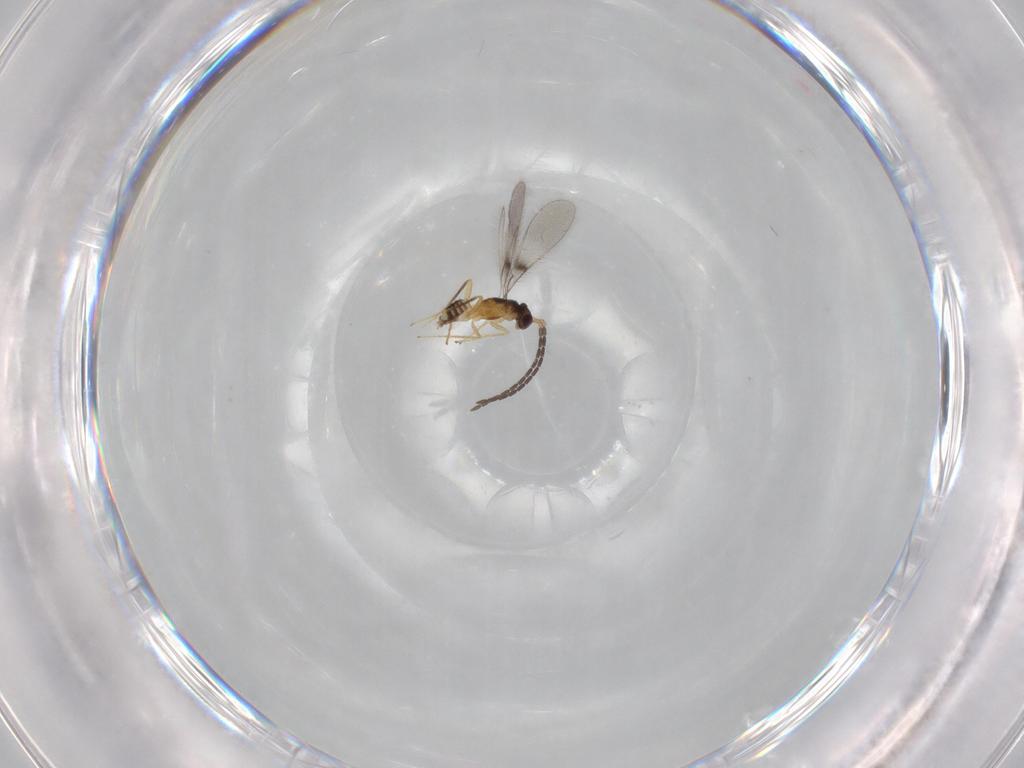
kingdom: Animalia
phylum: Arthropoda
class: Insecta
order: Hymenoptera
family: Mymaridae
